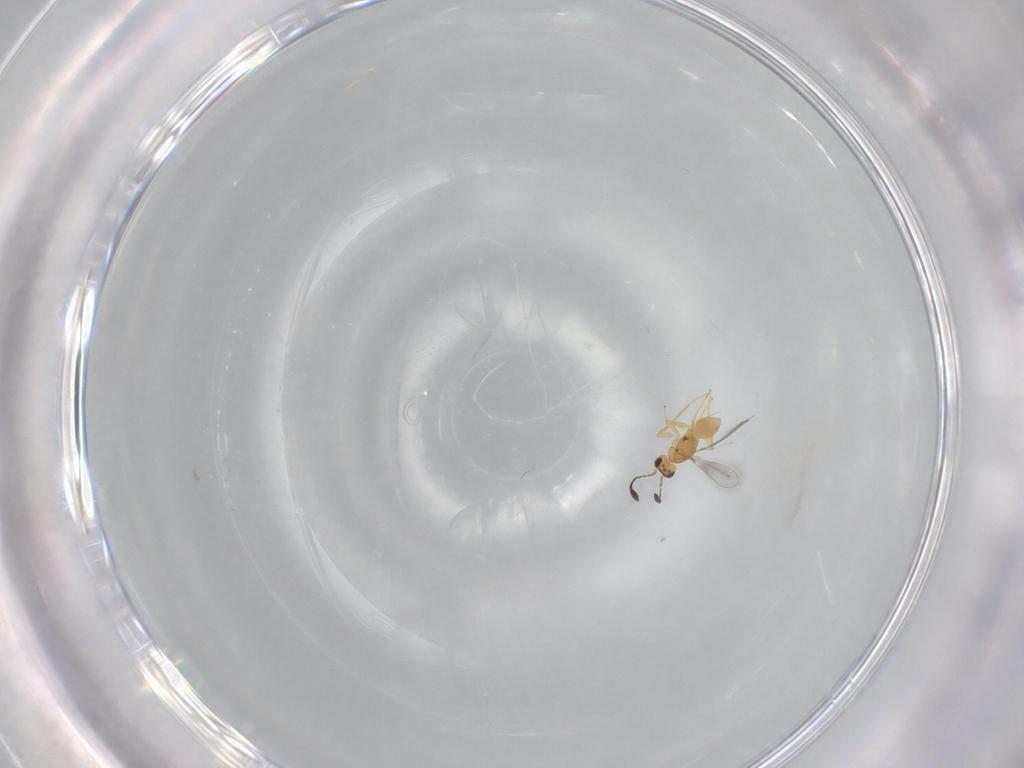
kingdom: Animalia
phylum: Arthropoda
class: Insecta
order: Hymenoptera
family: Mymaridae
